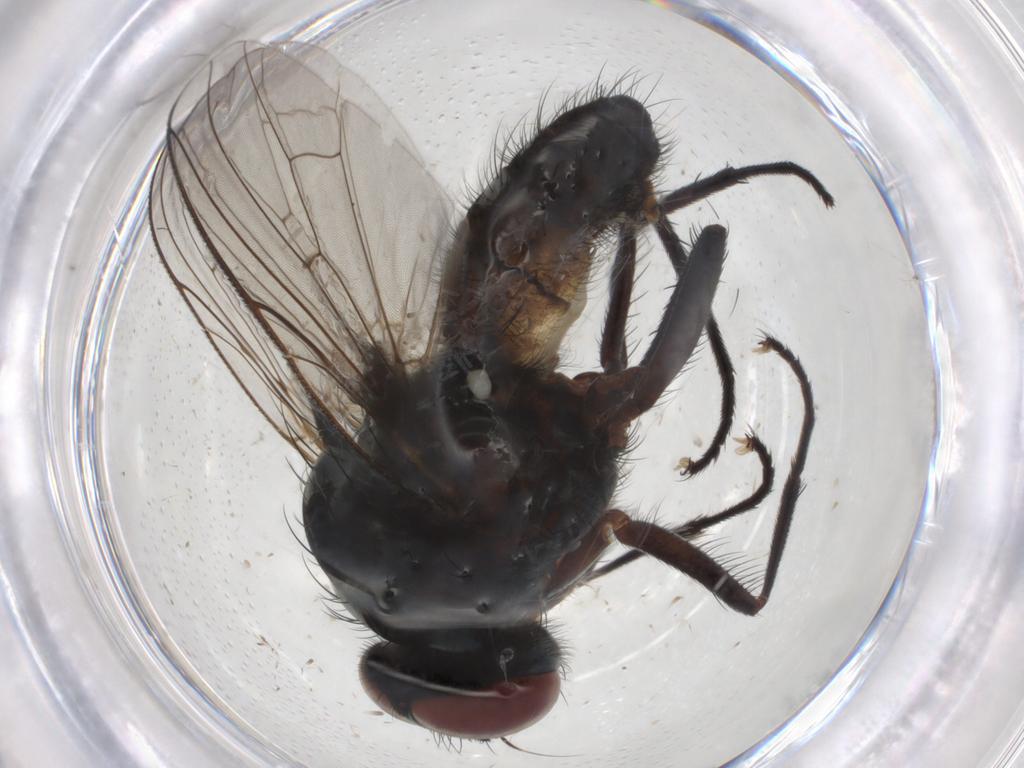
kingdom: Animalia
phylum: Arthropoda
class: Insecta
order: Diptera
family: Anthomyiidae
